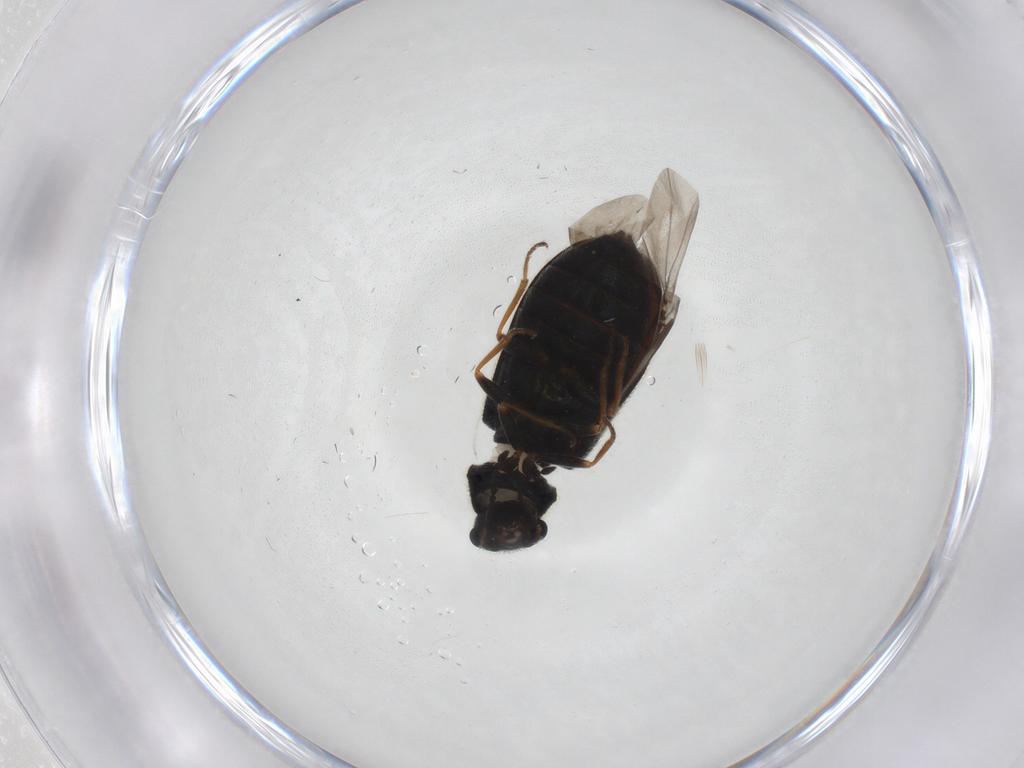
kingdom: Animalia
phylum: Arthropoda
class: Insecta
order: Coleoptera
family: Melyridae
